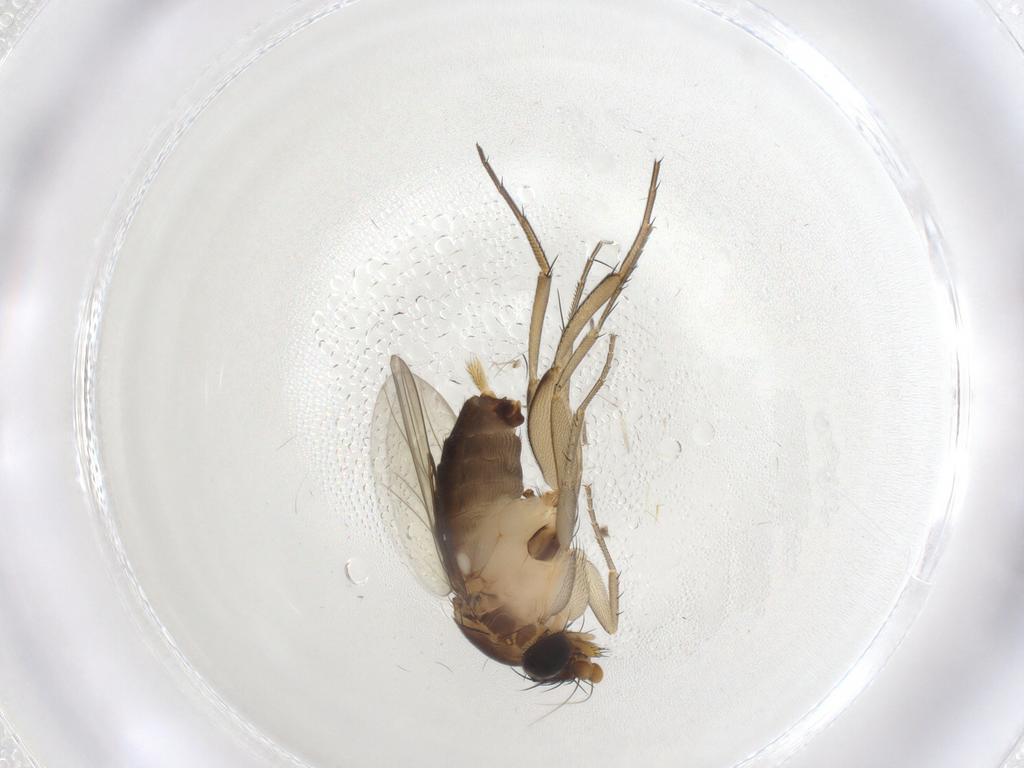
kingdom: Animalia
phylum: Arthropoda
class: Insecta
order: Diptera
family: Phoridae
